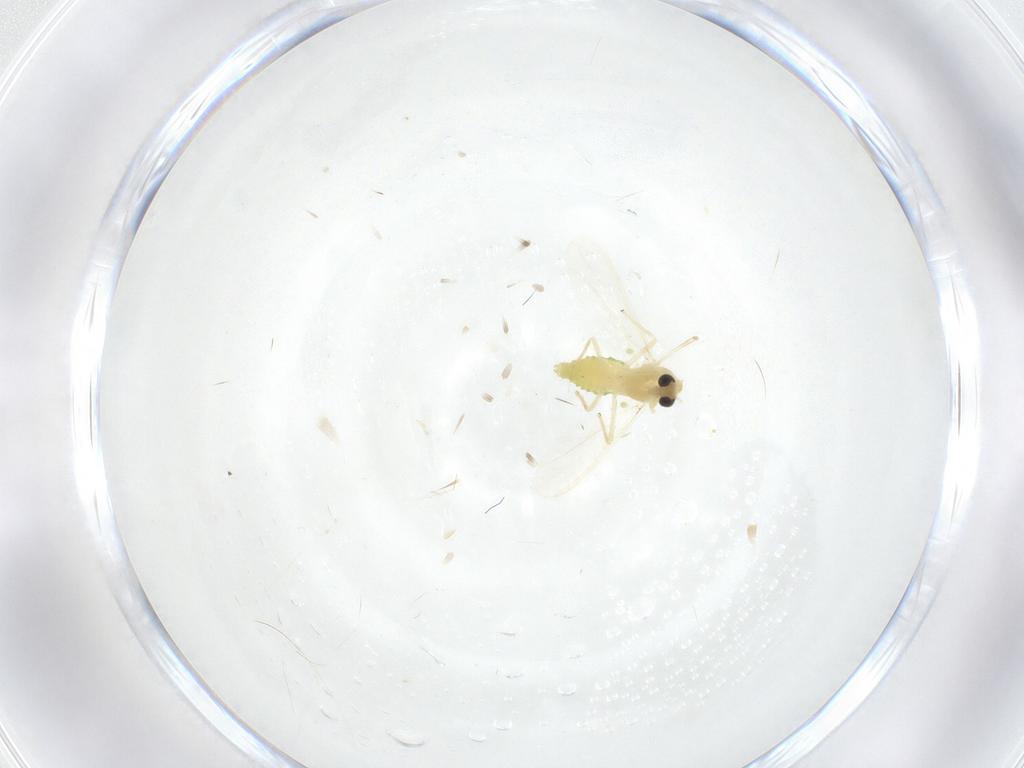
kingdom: Animalia
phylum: Arthropoda
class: Insecta
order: Diptera
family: Chironomidae
